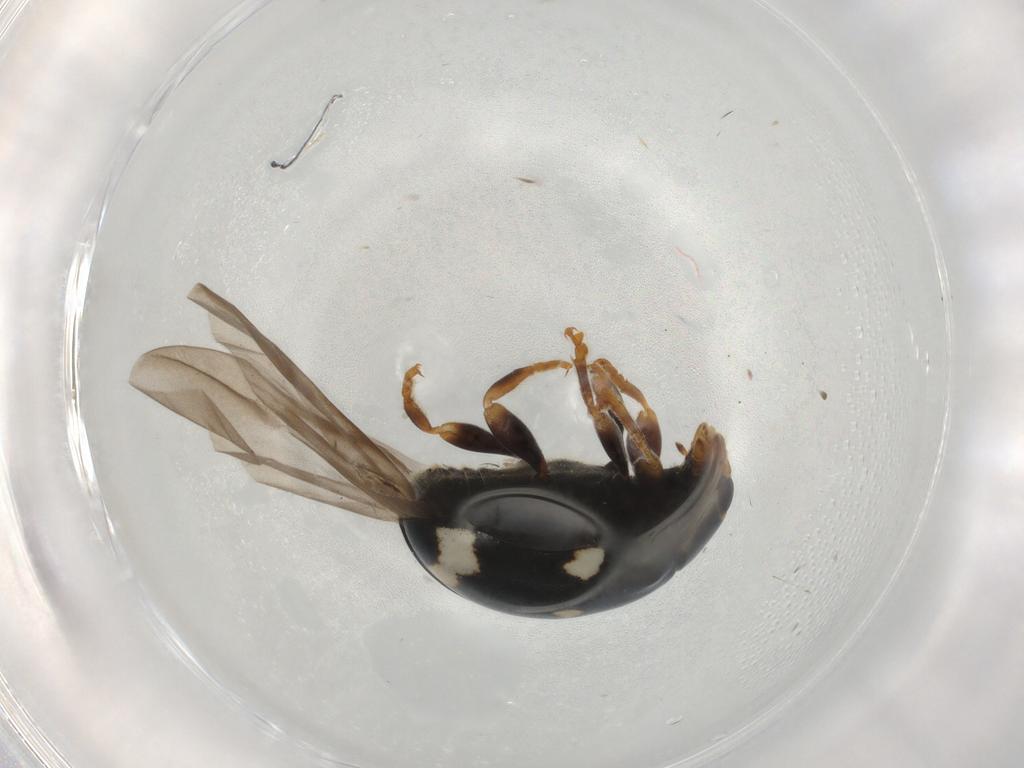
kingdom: Animalia
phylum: Arthropoda
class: Insecta
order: Coleoptera
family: Coccinellidae
